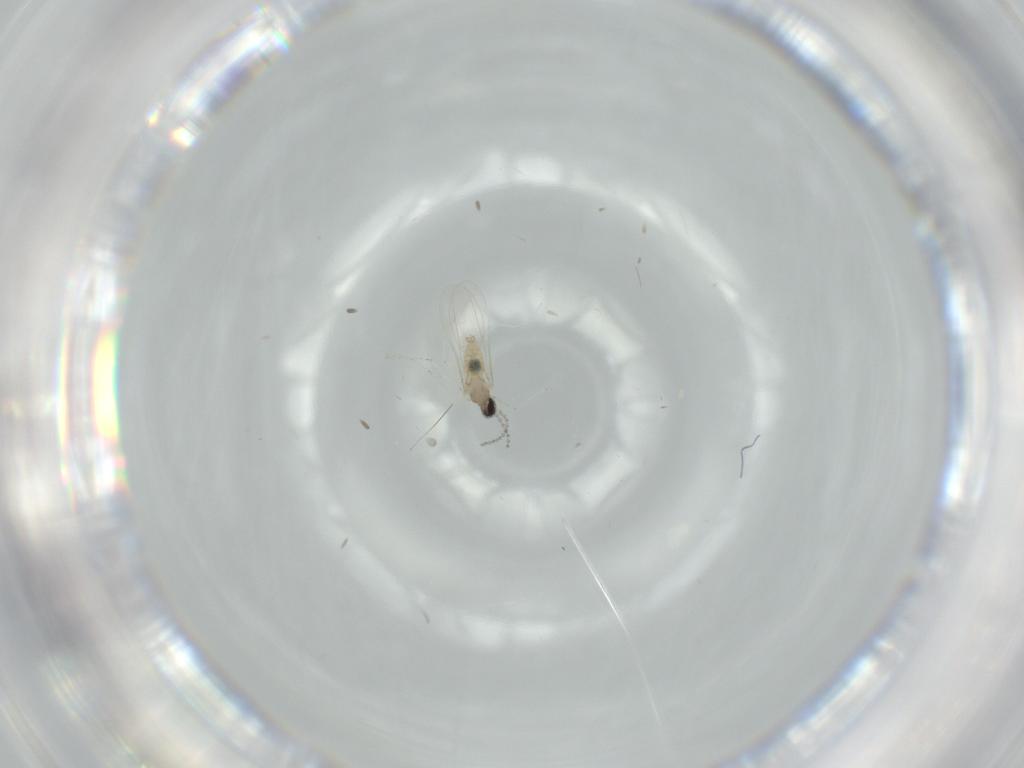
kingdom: Animalia
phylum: Arthropoda
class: Insecta
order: Diptera
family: Cecidomyiidae
